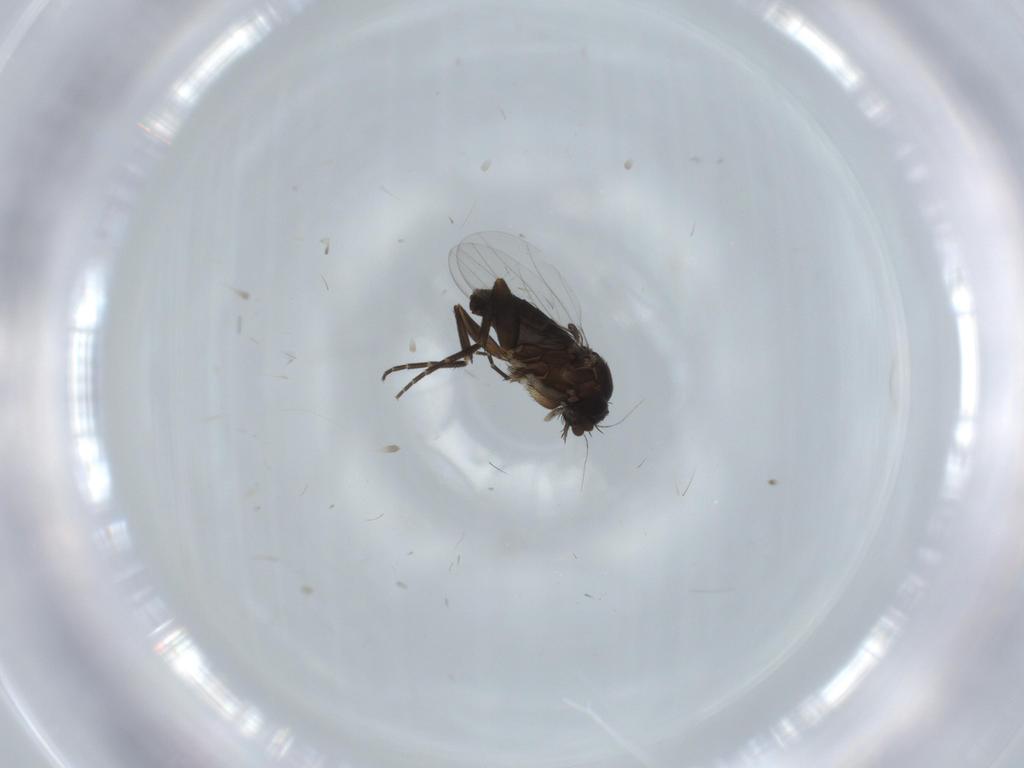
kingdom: Animalia
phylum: Arthropoda
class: Insecta
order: Diptera
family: Phoridae
